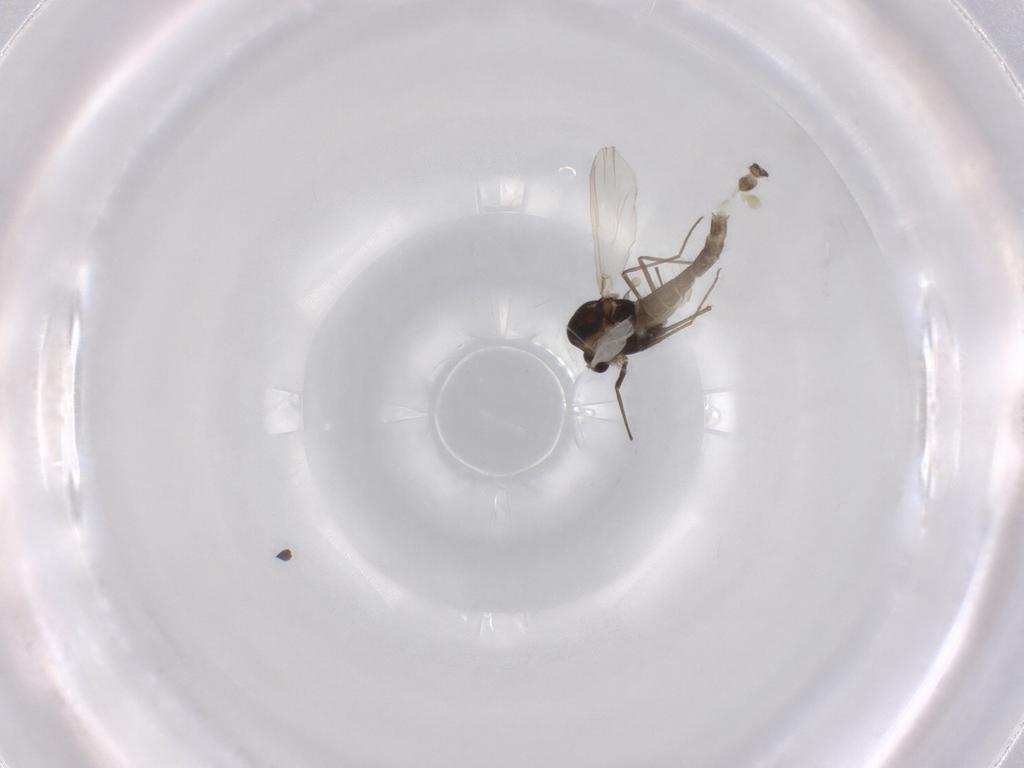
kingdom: Animalia
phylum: Arthropoda
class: Insecta
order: Diptera
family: Chironomidae
